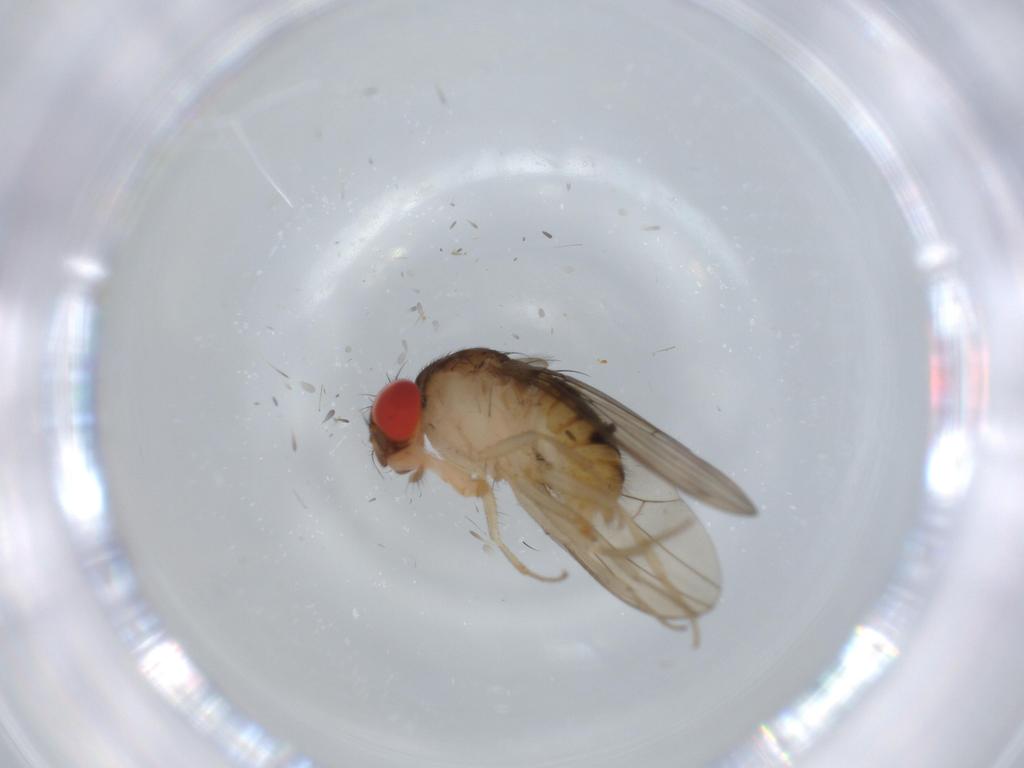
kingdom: Animalia
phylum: Arthropoda
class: Insecta
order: Diptera
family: Drosophilidae
